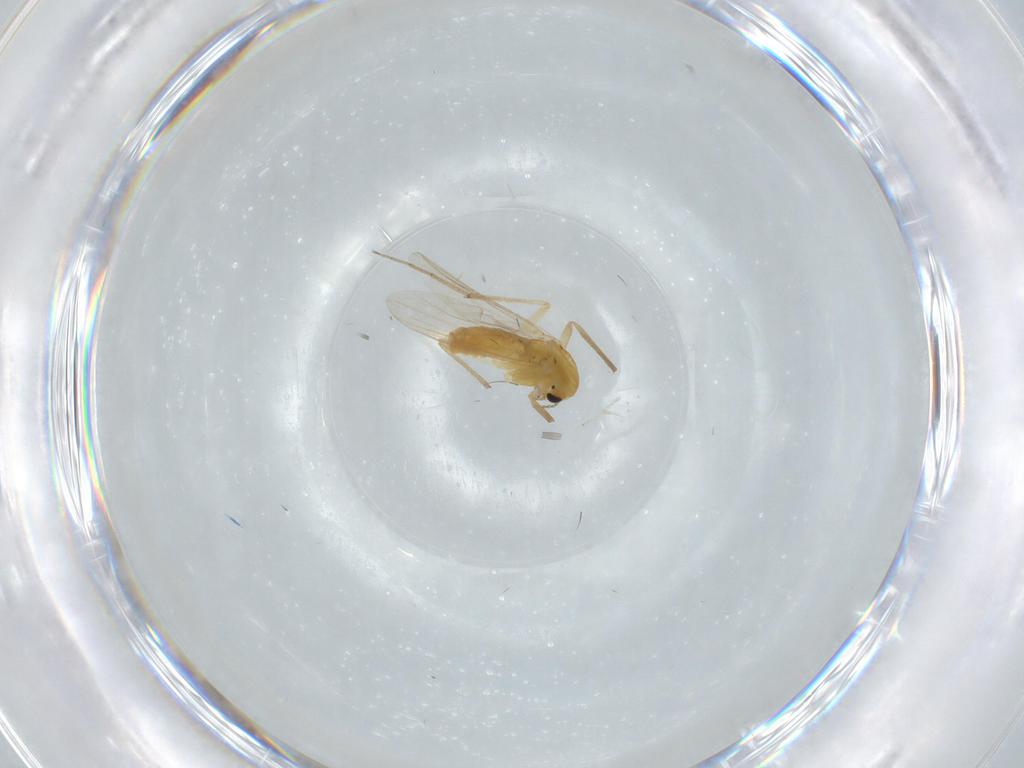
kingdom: Animalia
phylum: Arthropoda
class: Insecta
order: Diptera
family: Chironomidae
